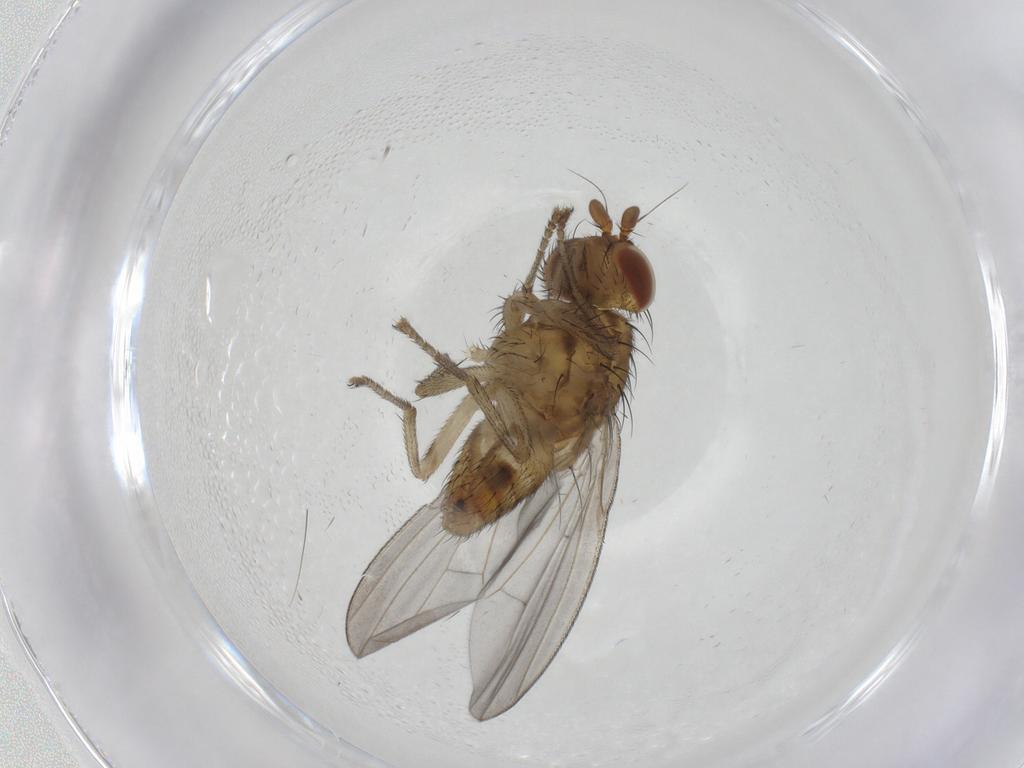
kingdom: Animalia
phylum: Arthropoda
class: Insecta
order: Diptera
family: Lauxaniidae
